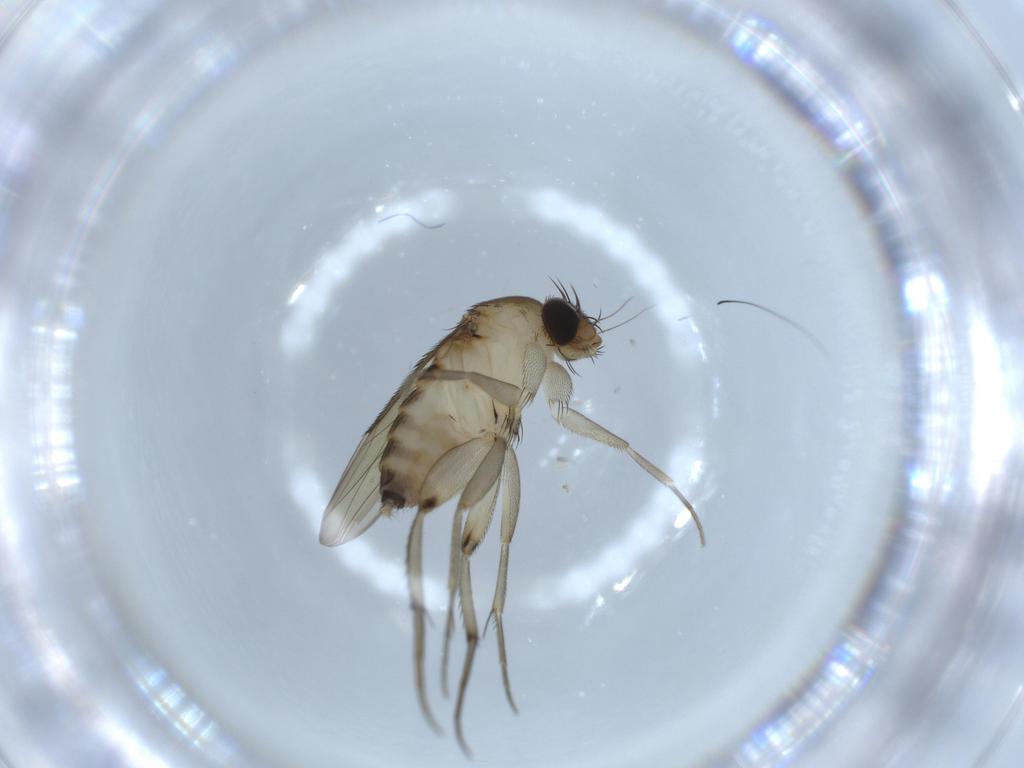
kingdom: Animalia
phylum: Arthropoda
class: Insecta
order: Diptera
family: Phoridae
